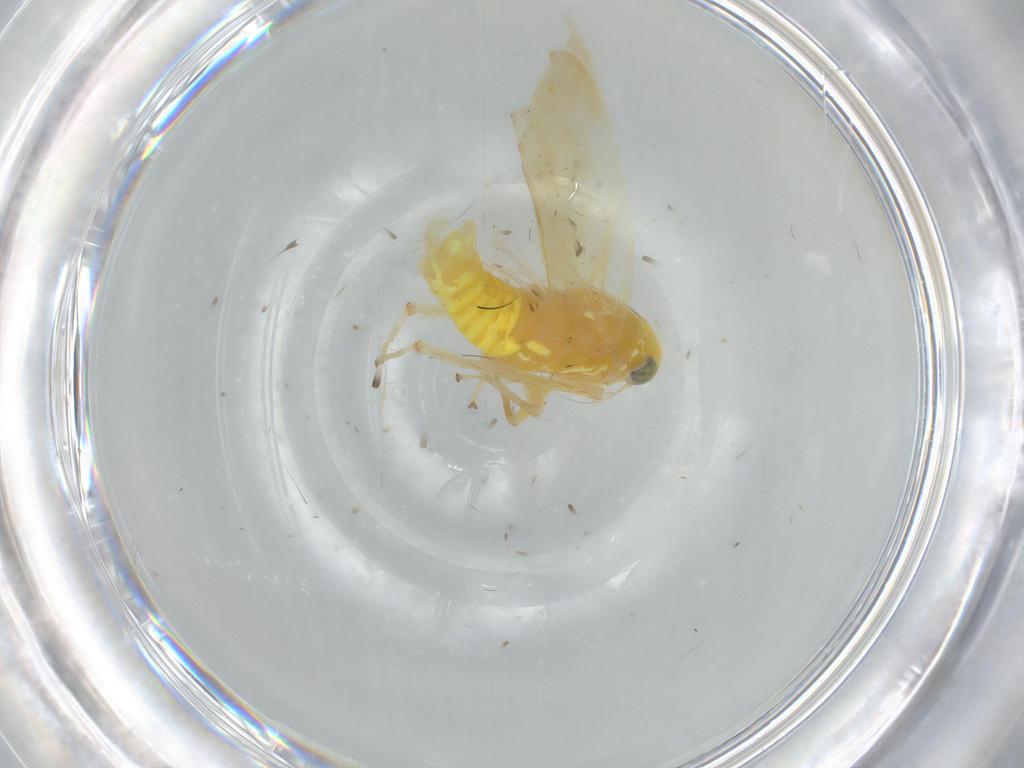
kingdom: Animalia
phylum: Arthropoda
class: Insecta
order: Hemiptera
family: Cicadellidae
